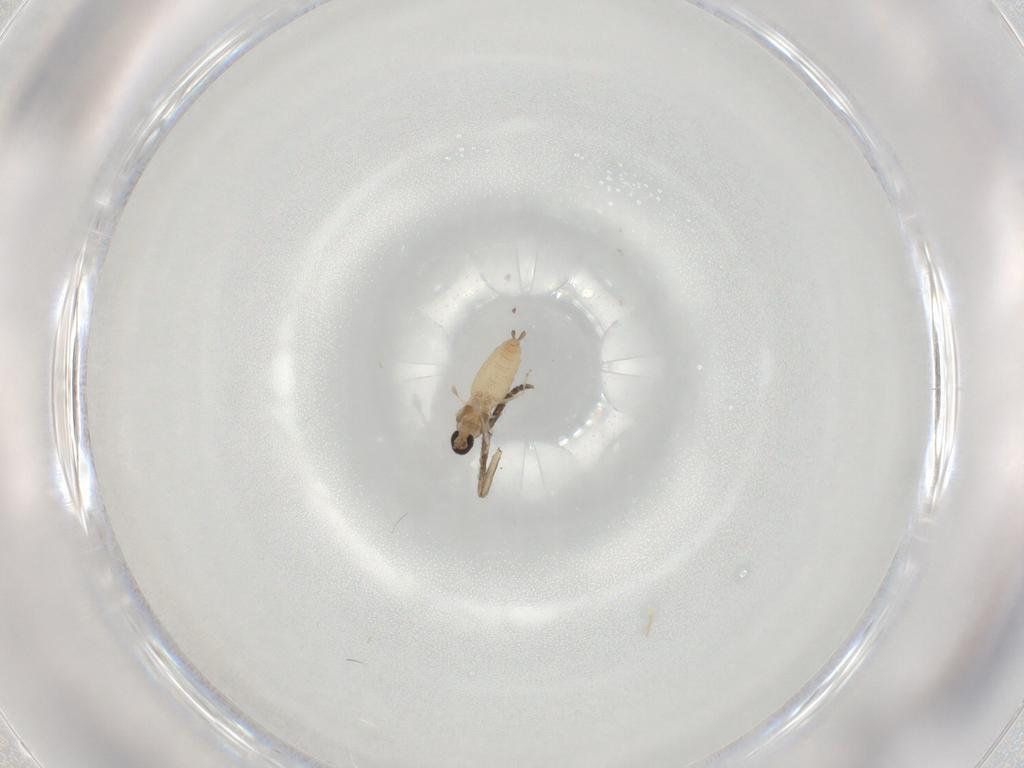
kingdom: Animalia
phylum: Arthropoda
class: Insecta
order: Diptera
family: Cecidomyiidae
